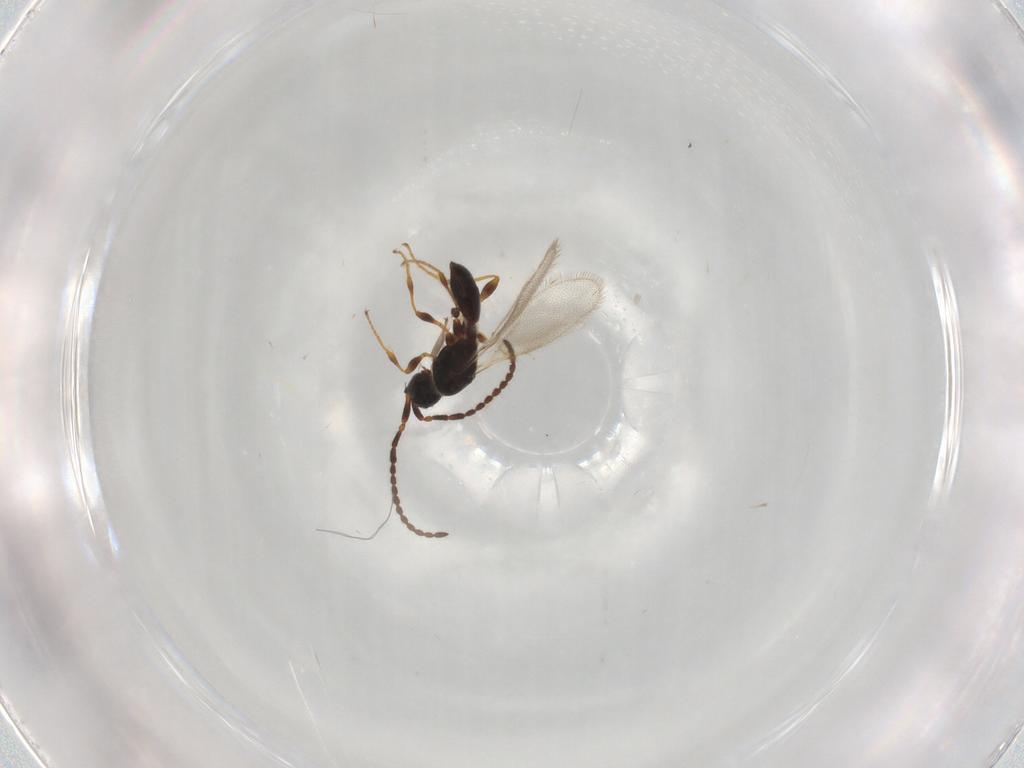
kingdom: Animalia
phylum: Arthropoda
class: Insecta
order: Hymenoptera
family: Diapriidae
